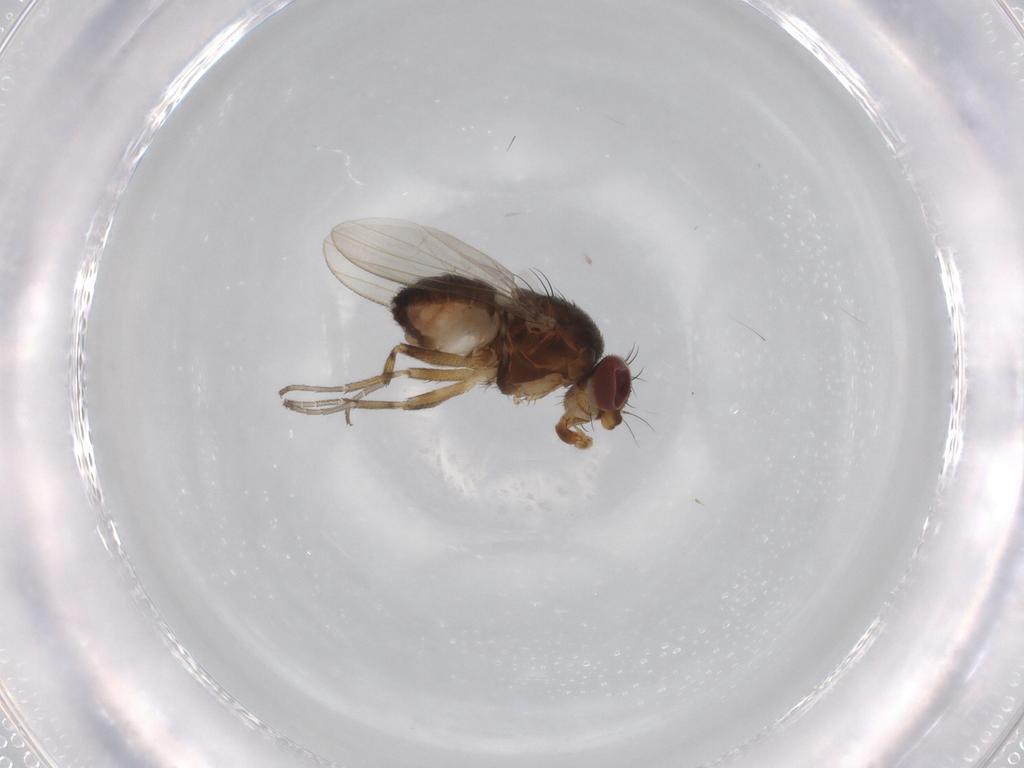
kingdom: Animalia
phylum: Arthropoda
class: Insecta
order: Diptera
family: Heleomyzidae
